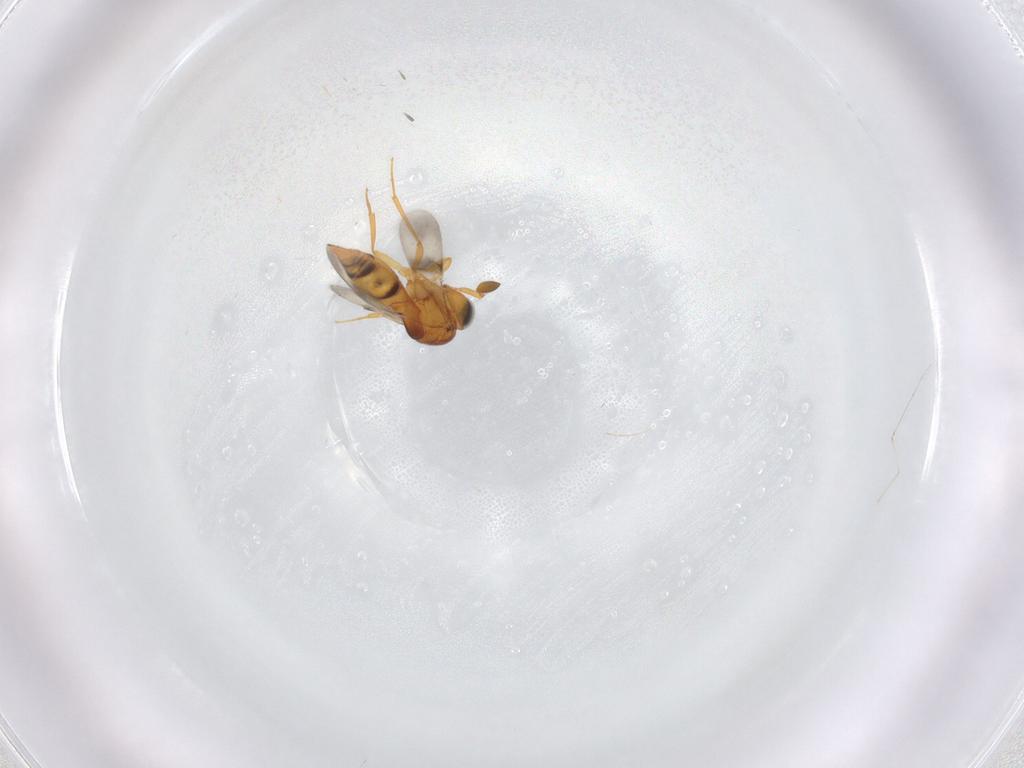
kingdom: Animalia
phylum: Arthropoda
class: Insecta
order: Hymenoptera
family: Scelionidae
